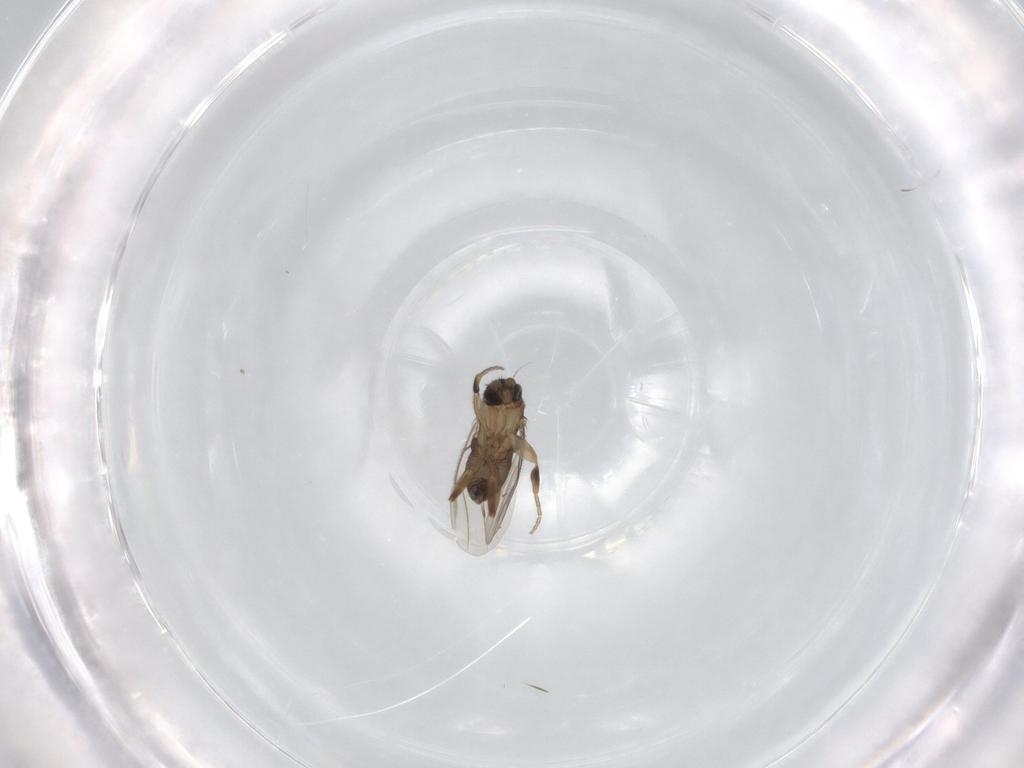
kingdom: Animalia
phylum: Arthropoda
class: Insecta
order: Diptera
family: Phoridae
